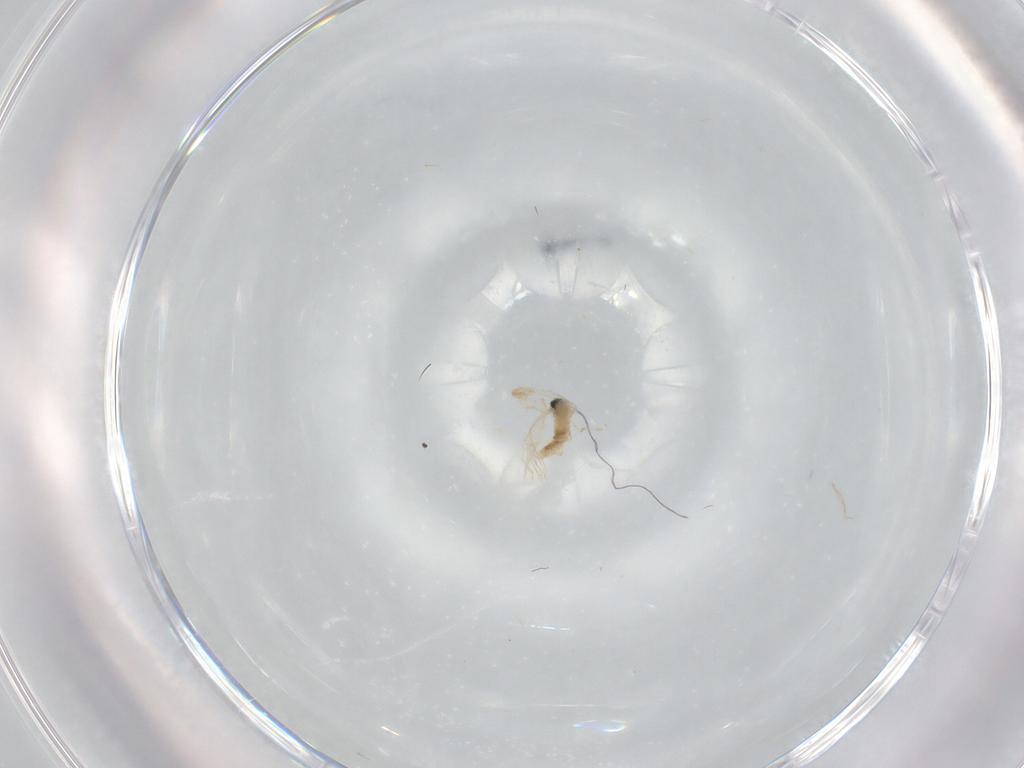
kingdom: Animalia
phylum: Arthropoda
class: Insecta
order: Diptera
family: Cecidomyiidae
